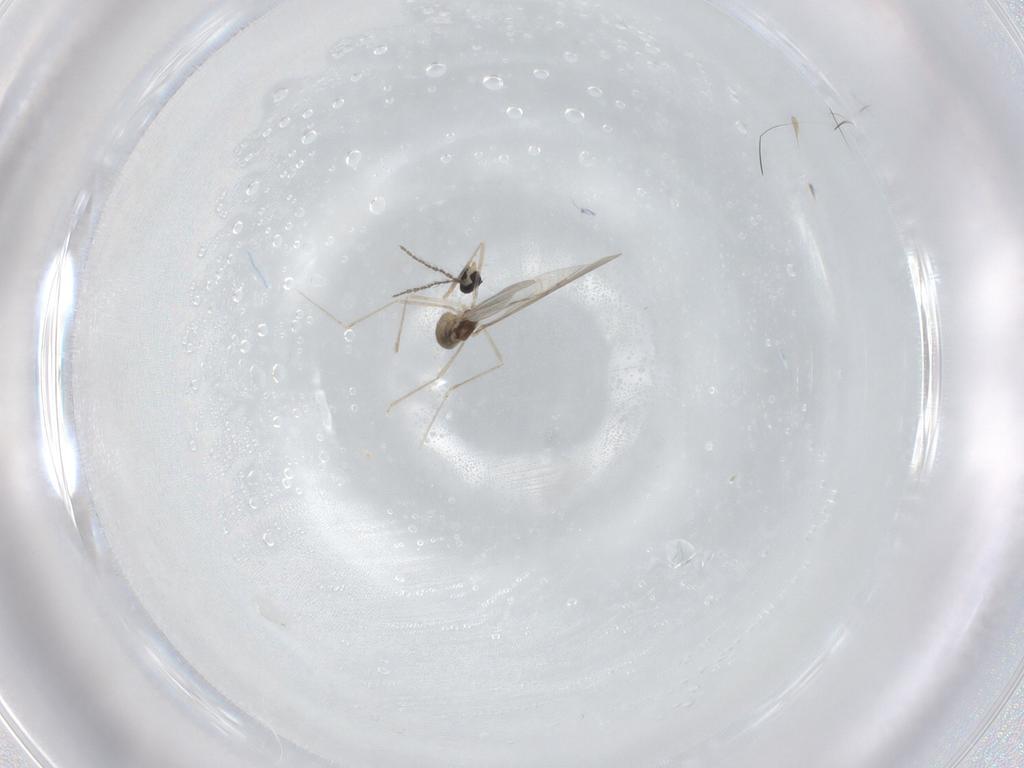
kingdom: Animalia
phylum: Arthropoda
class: Insecta
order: Diptera
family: Cecidomyiidae
